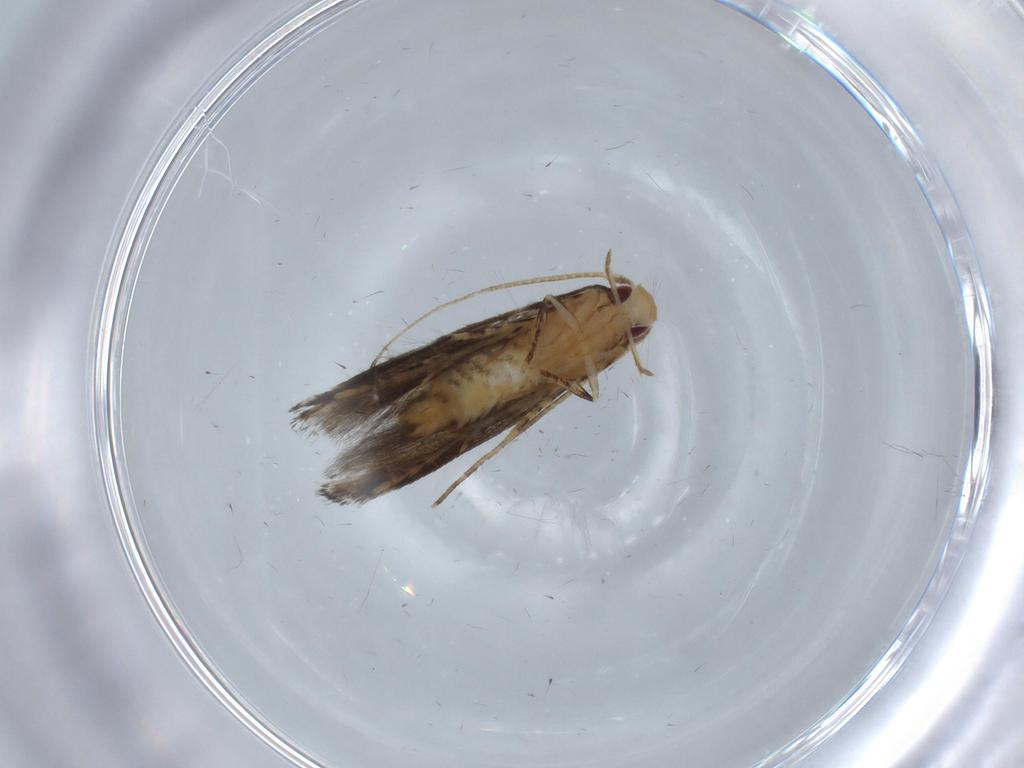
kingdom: Animalia
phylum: Arthropoda
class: Insecta
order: Lepidoptera
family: Momphidae
